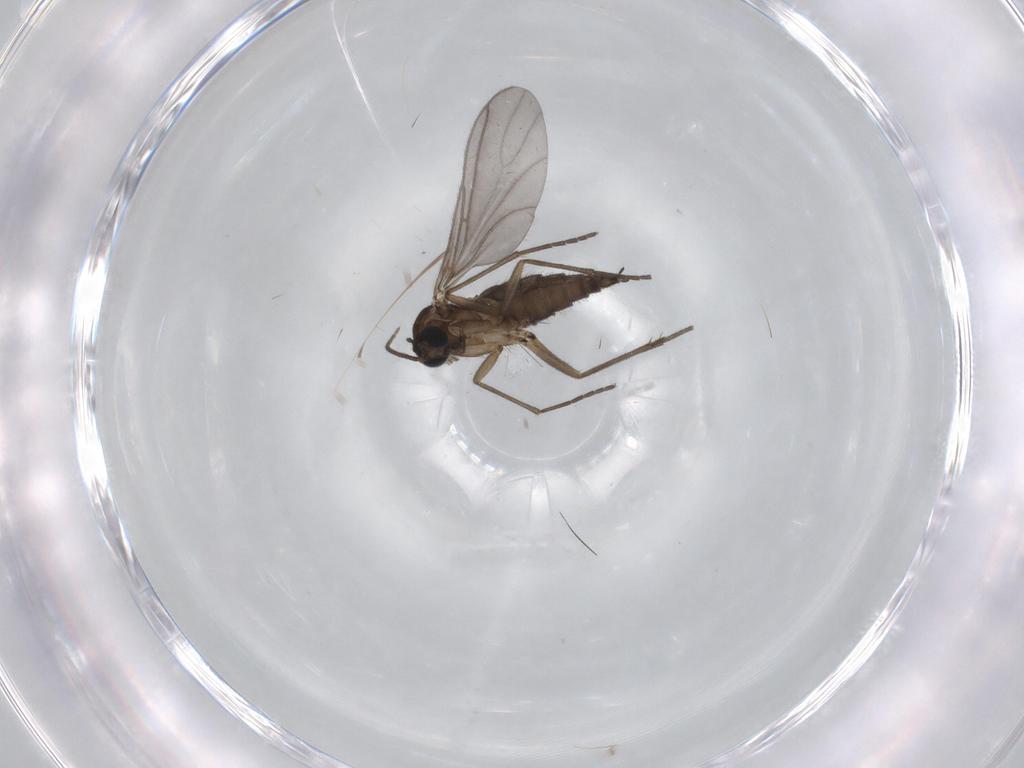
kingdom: Animalia
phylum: Arthropoda
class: Insecta
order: Diptera
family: Sciaridae
